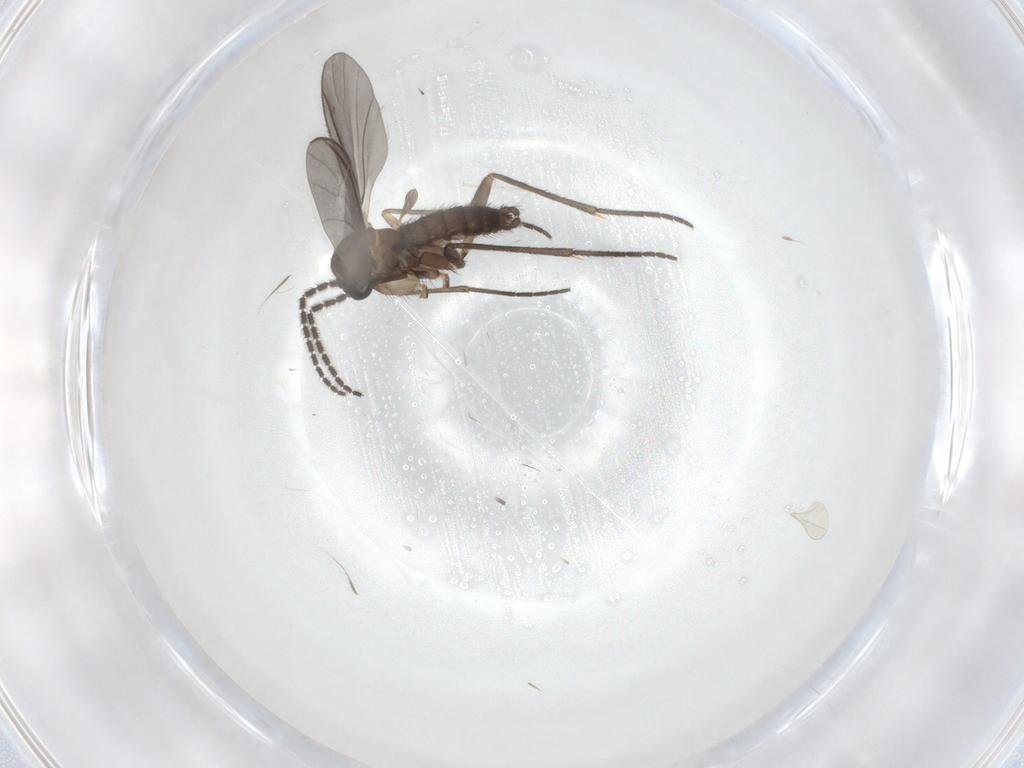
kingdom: Animalia
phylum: Arthropoda
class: Insecta
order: Diptera
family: Sciaridae
